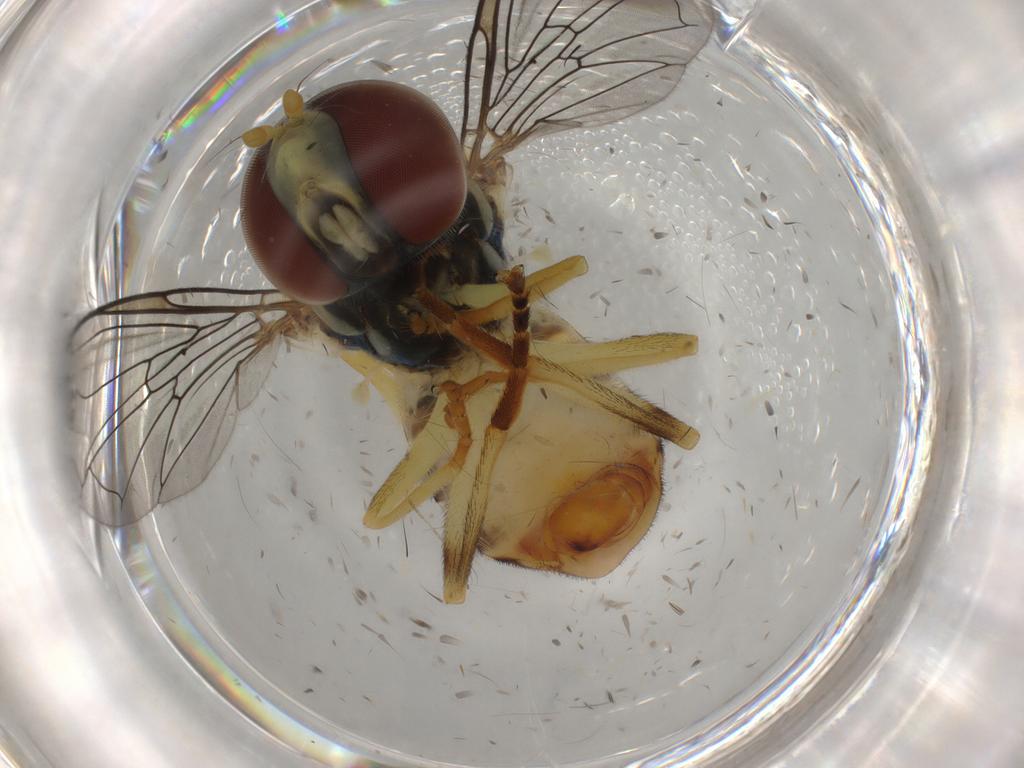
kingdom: Animalia
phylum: Arthropoda
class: Insecta
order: Diptera
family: Syrphidae
